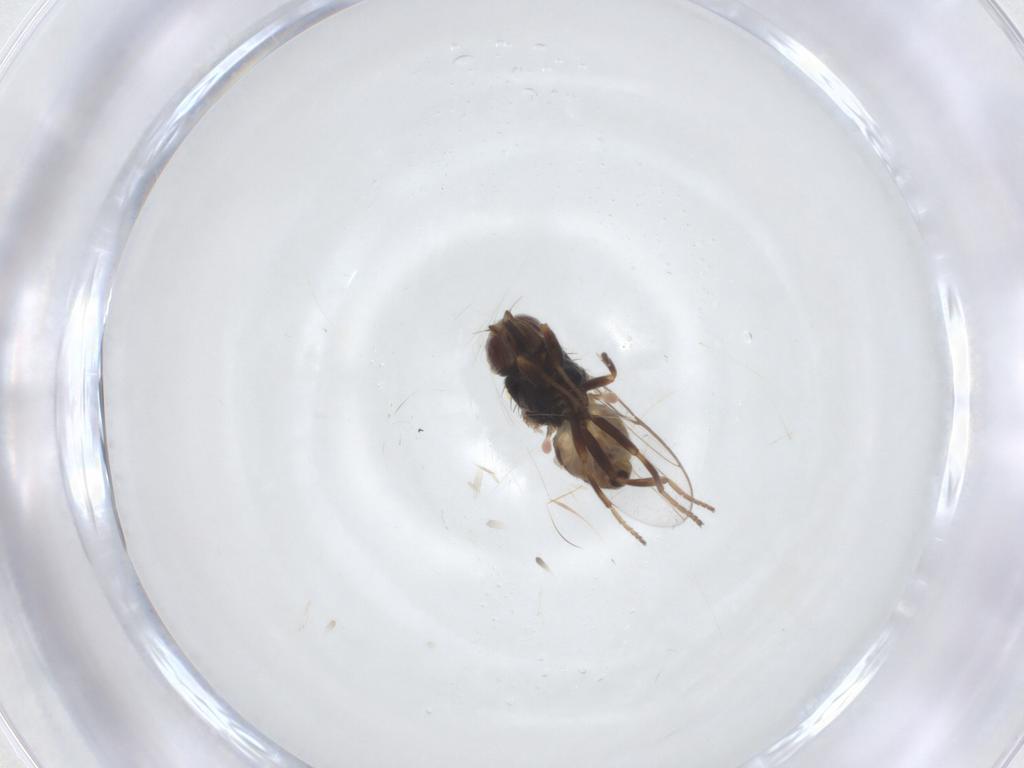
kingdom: Animalia
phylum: Arthropoda
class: Insecta
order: Diptera
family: Chloropidae
